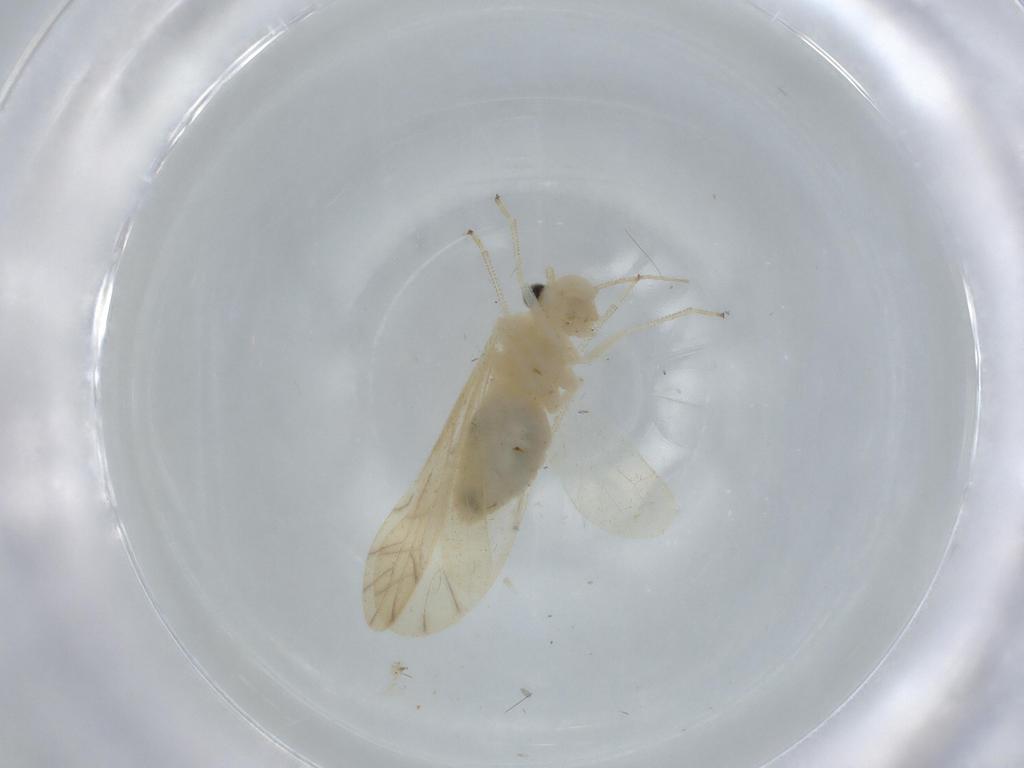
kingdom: Animalia
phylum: Arthropoda
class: Insecta
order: Psocodea
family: Caeciliusidae
